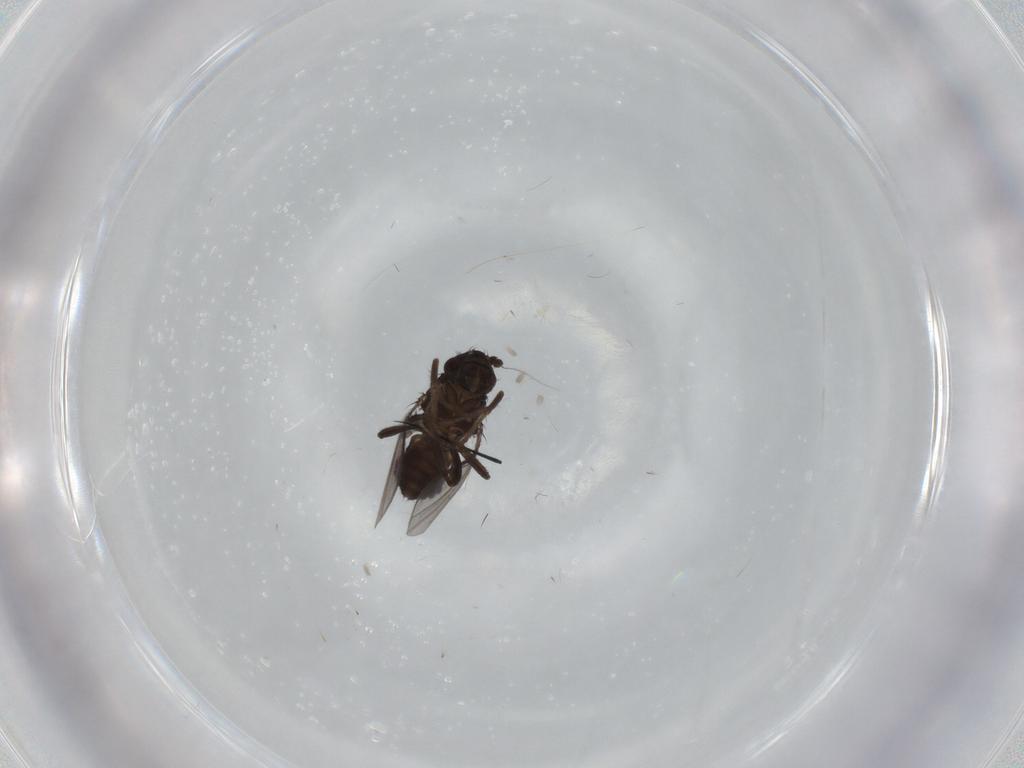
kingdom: Animalia
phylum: Arthropoda
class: Insecta
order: Diptera
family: Sphaeroceridae
